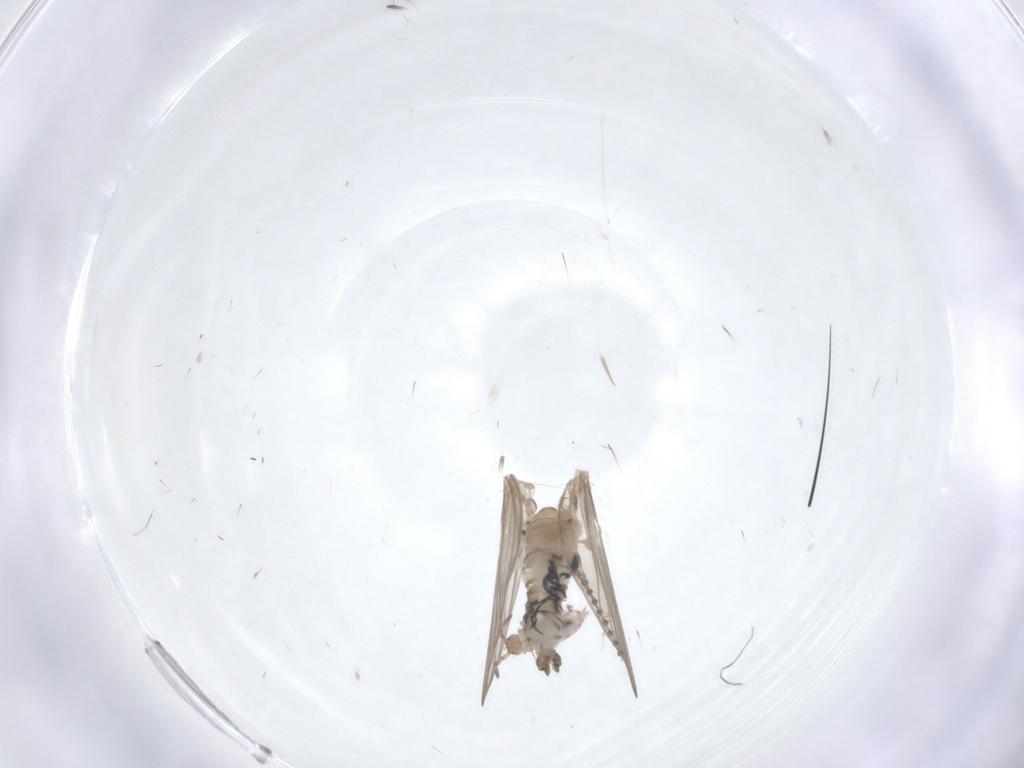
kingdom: Animalia
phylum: Arthropoda
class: Insecta
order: Diptera
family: Psychodidae
